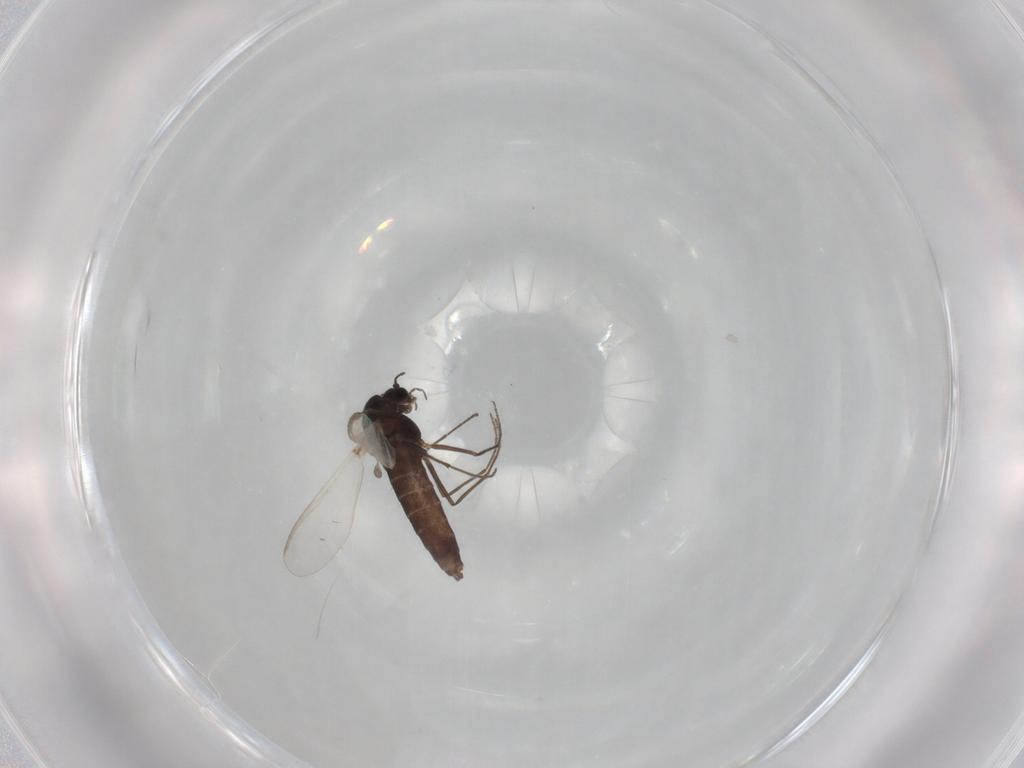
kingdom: Animalia
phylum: Arthropoda
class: Insecta
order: Diptera
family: Chironomidae
